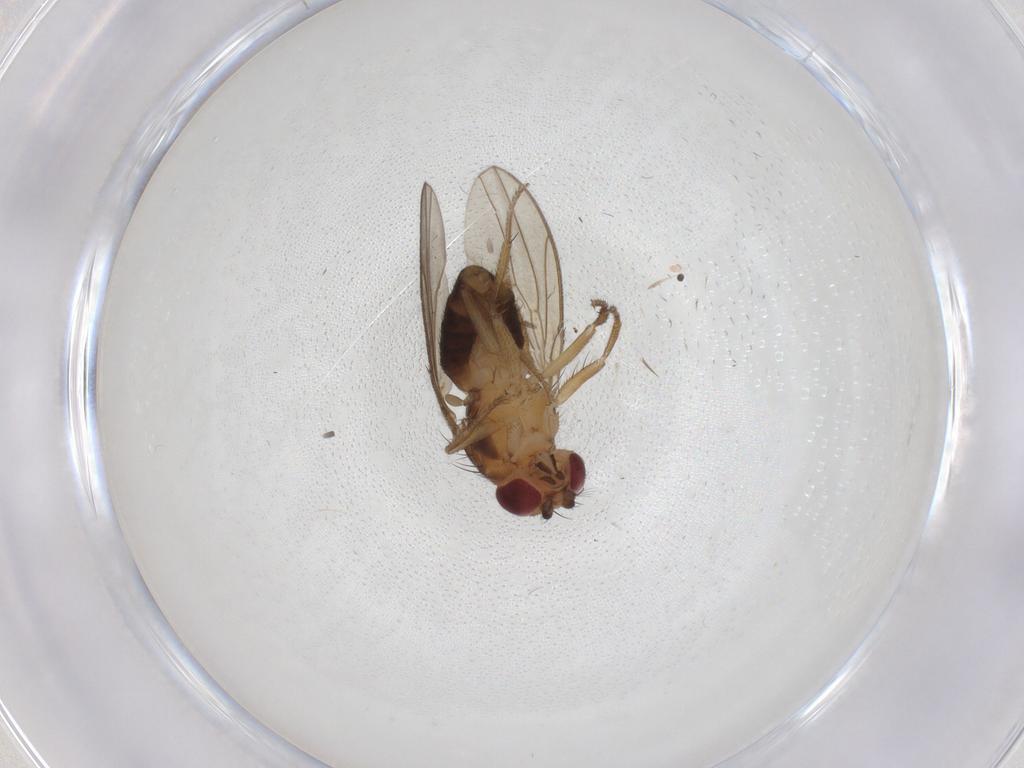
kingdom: Animalia
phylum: Arthropoda
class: Insecta
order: Diptera
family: Drosophilidae
